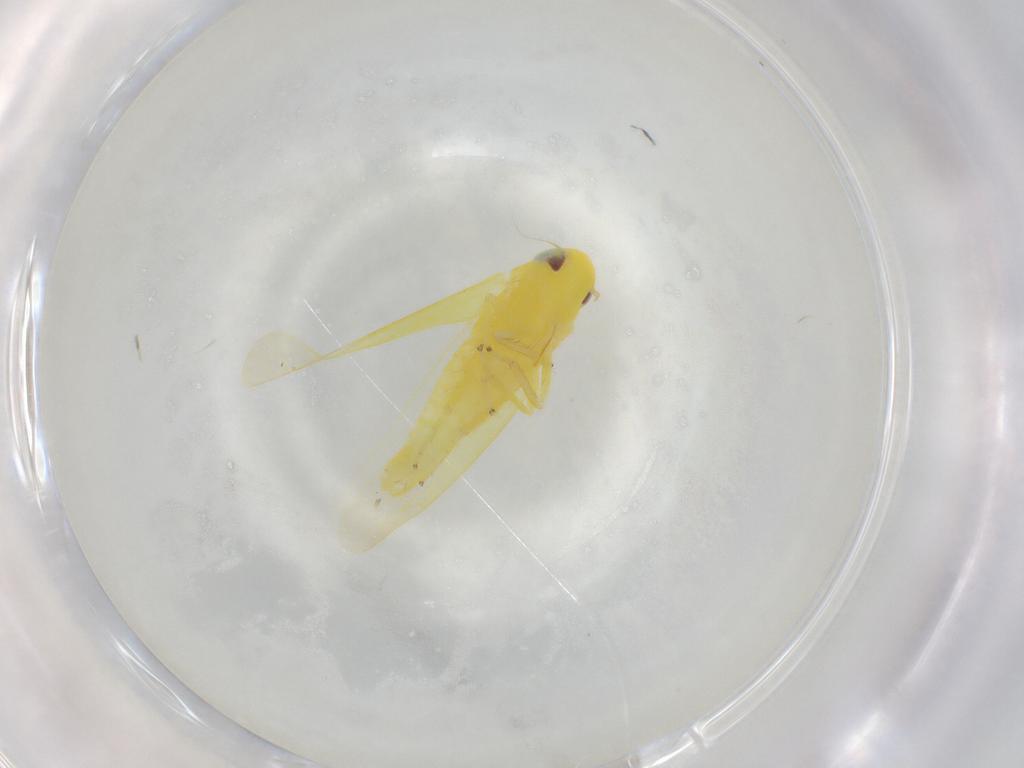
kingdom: Animalia
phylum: Arthropoda
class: Insecta
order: Hemiptera
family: Cicadellidae
